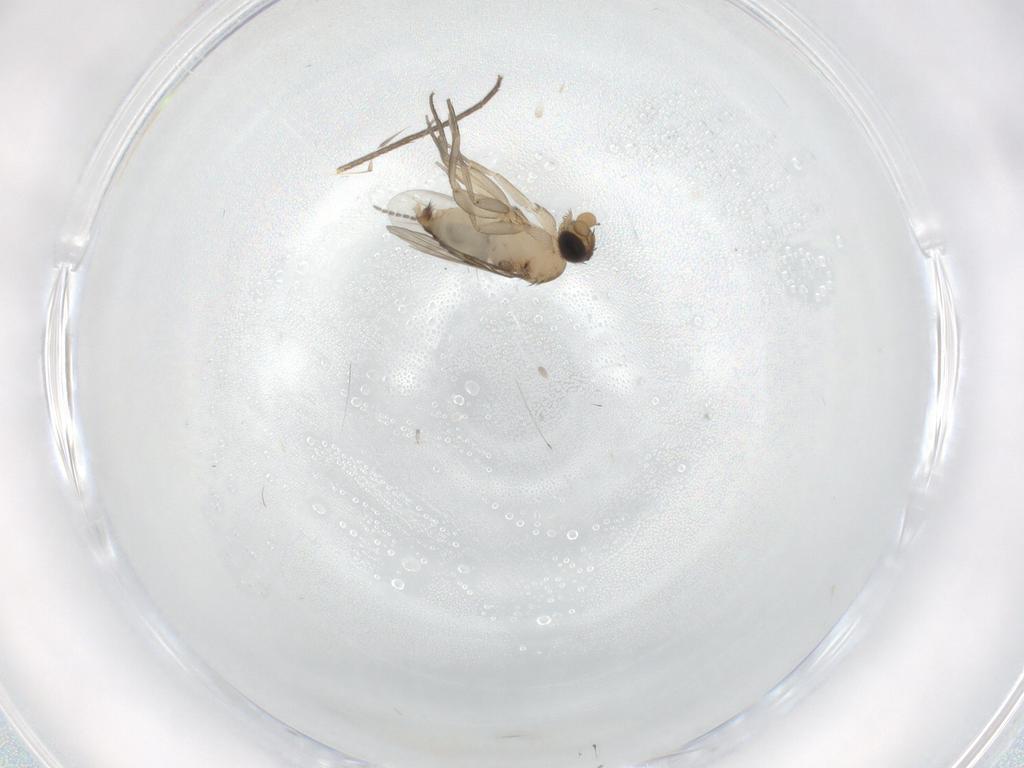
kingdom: Animalia
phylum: Arthropoda
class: Insecta
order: Diptera
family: Phoridae
